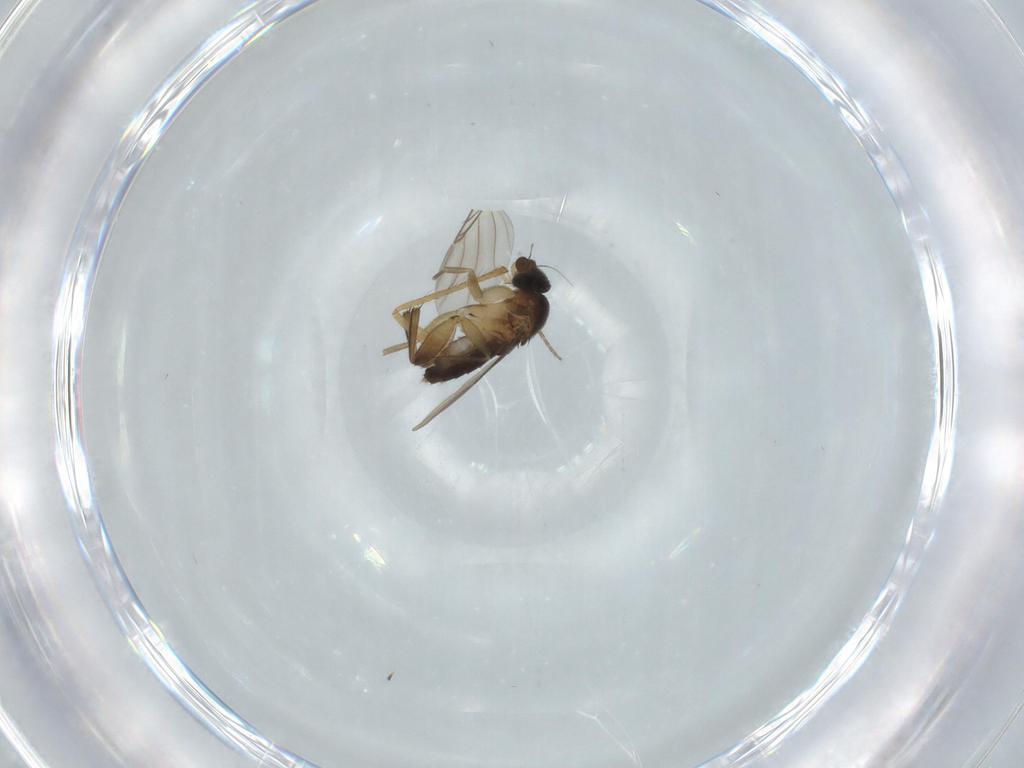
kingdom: Animalia
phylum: Arthropoda
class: Insecta
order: Diptera
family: Phoridae
